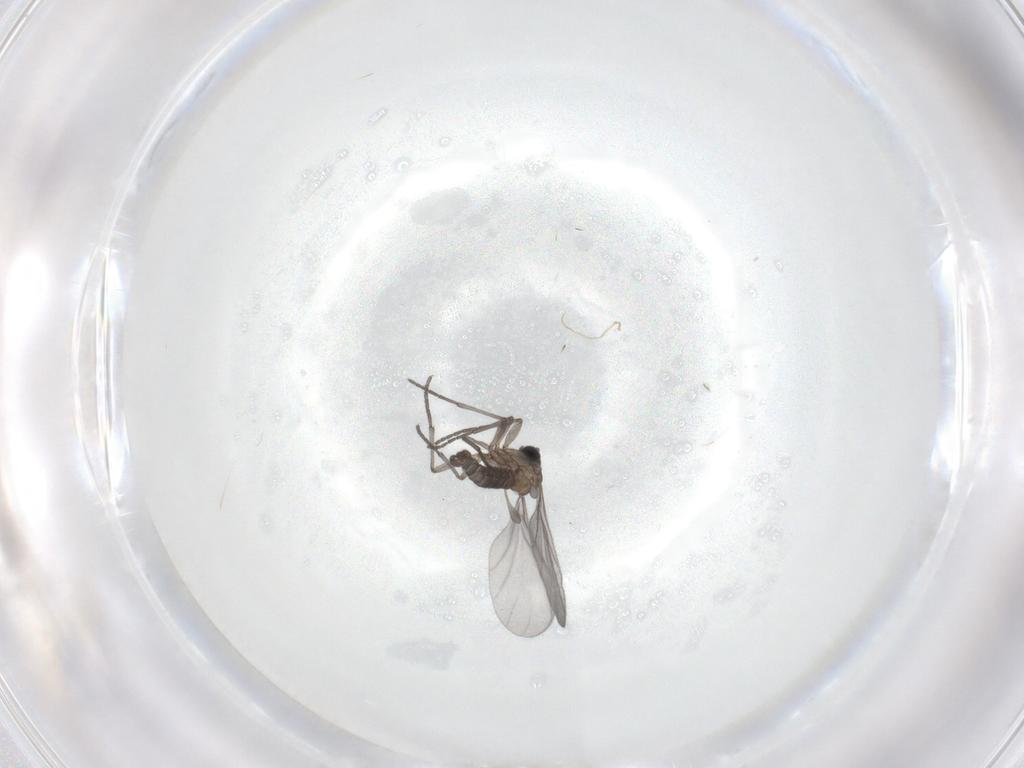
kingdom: Animalia
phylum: Arthropoda
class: Insecta
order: Diptera
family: Sciaridae
